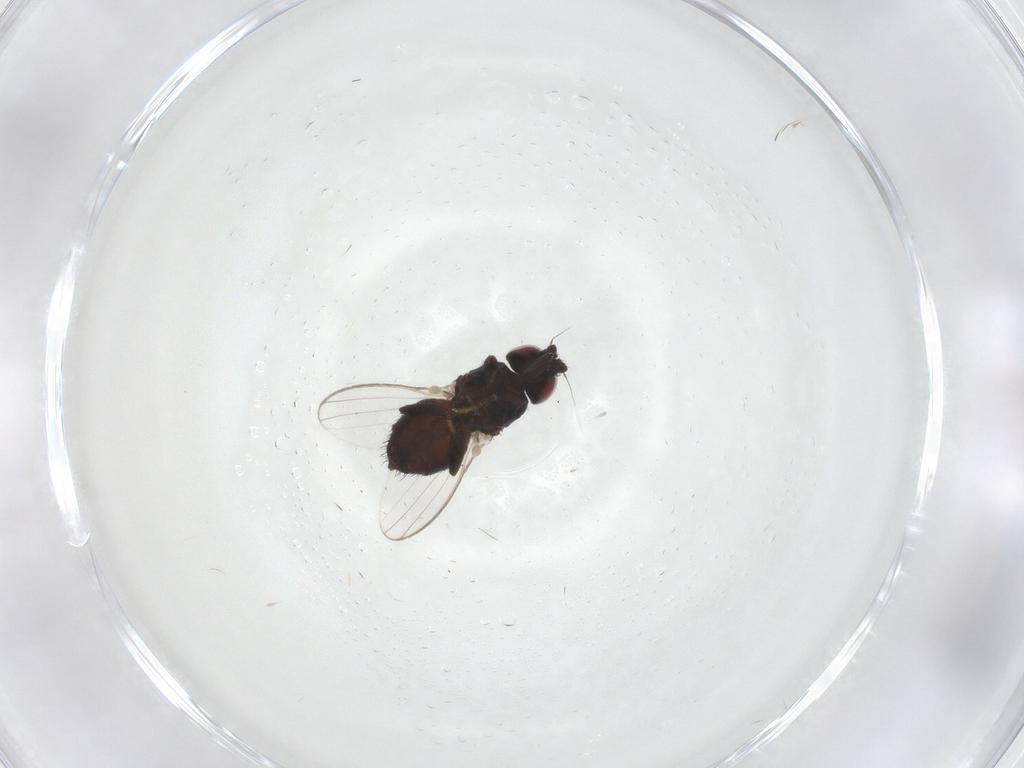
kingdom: Animalia
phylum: Arthropoda
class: Insecta
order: Diptera
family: Milichiidae
